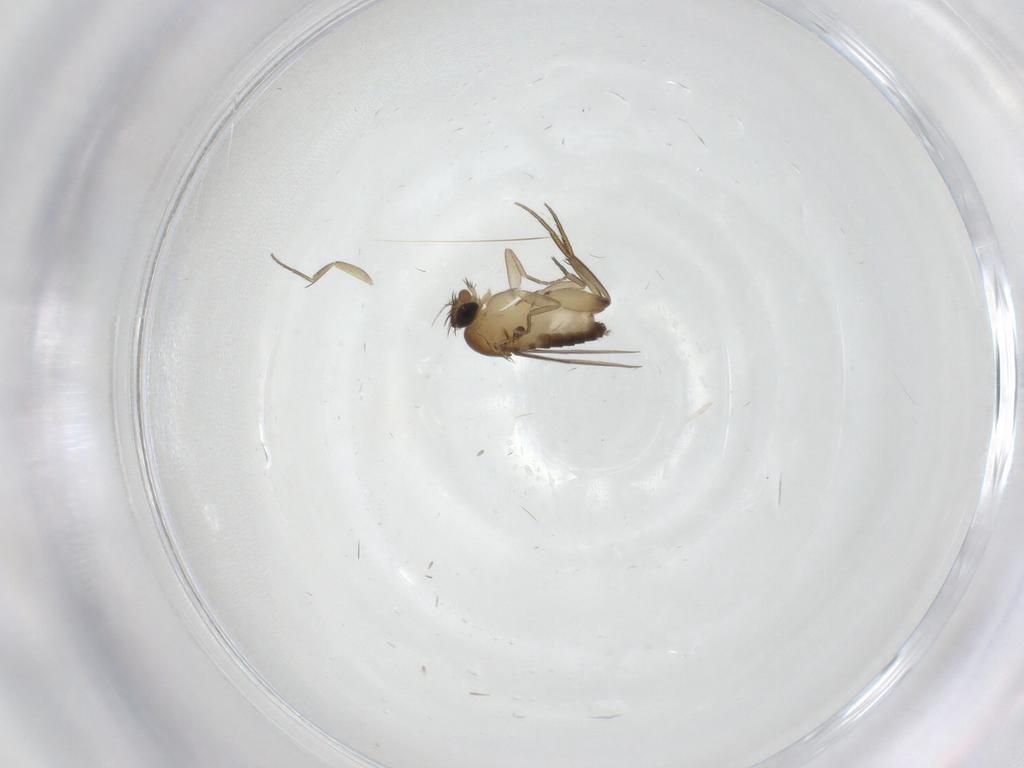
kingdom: Animalia
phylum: Arthropoda
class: Insecta
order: Diptera
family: Phoridae
